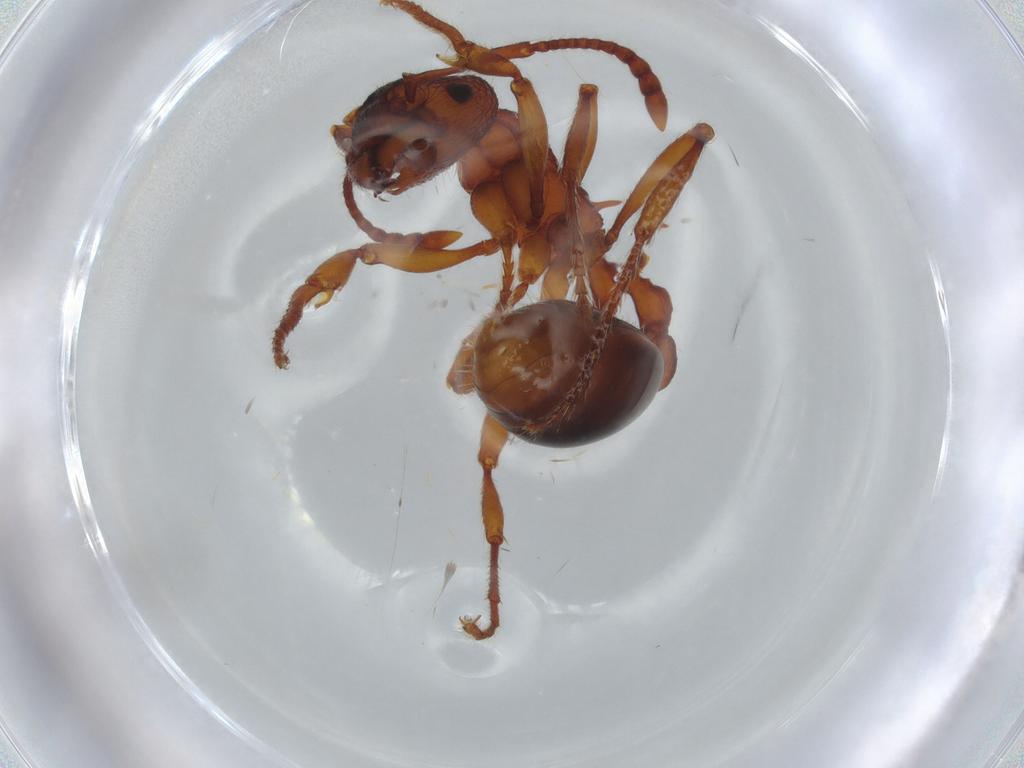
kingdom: Animalia
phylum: Arthropoda
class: Insecta
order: Hymenoptera
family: Formicidae
